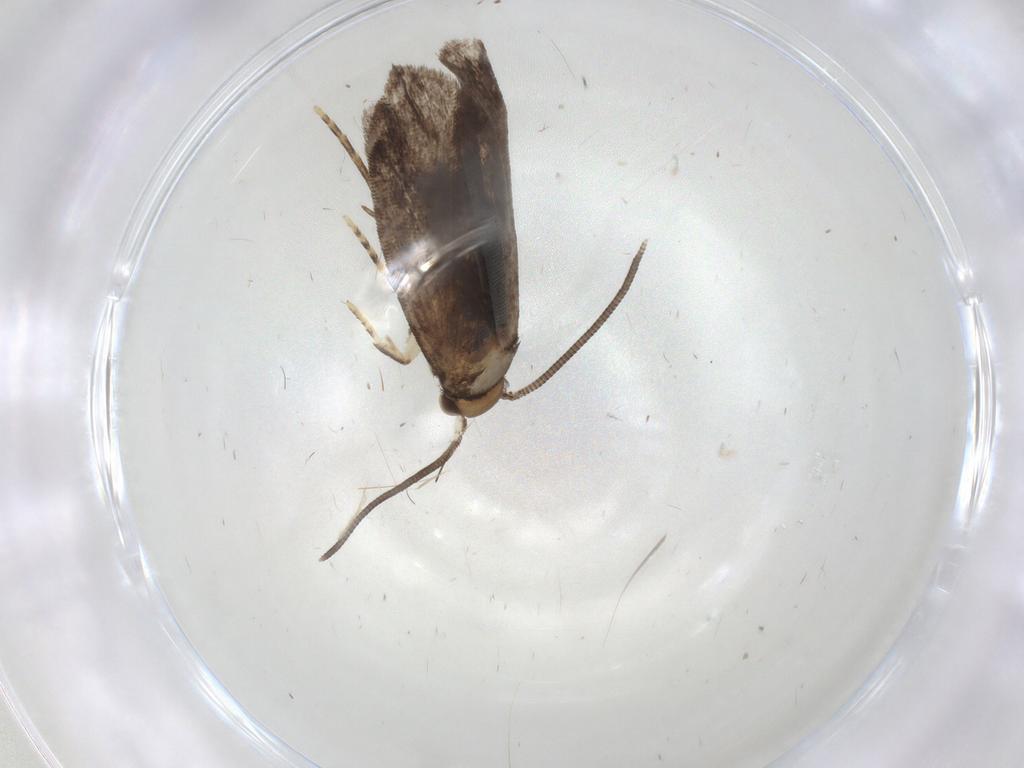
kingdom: Animalia
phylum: Arthropoda
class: Insecta
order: Lepidoptera
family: Dryadaulidae
